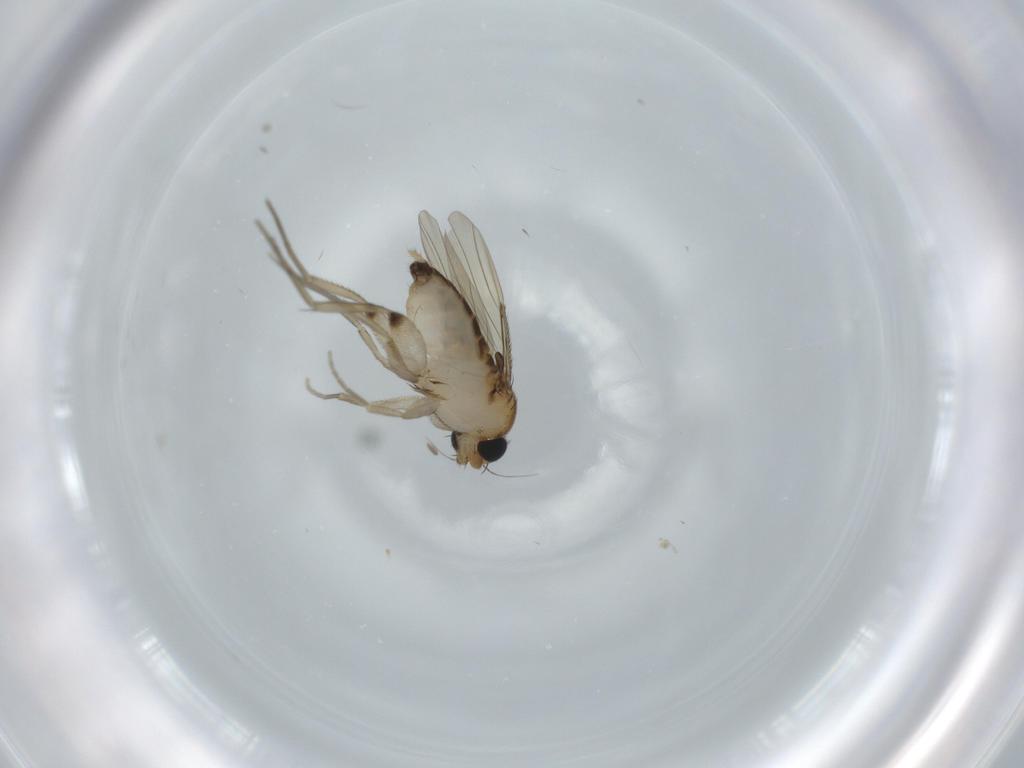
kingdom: Animalia
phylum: Arthropoda
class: Insecta
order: Diptera
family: Phoridae
